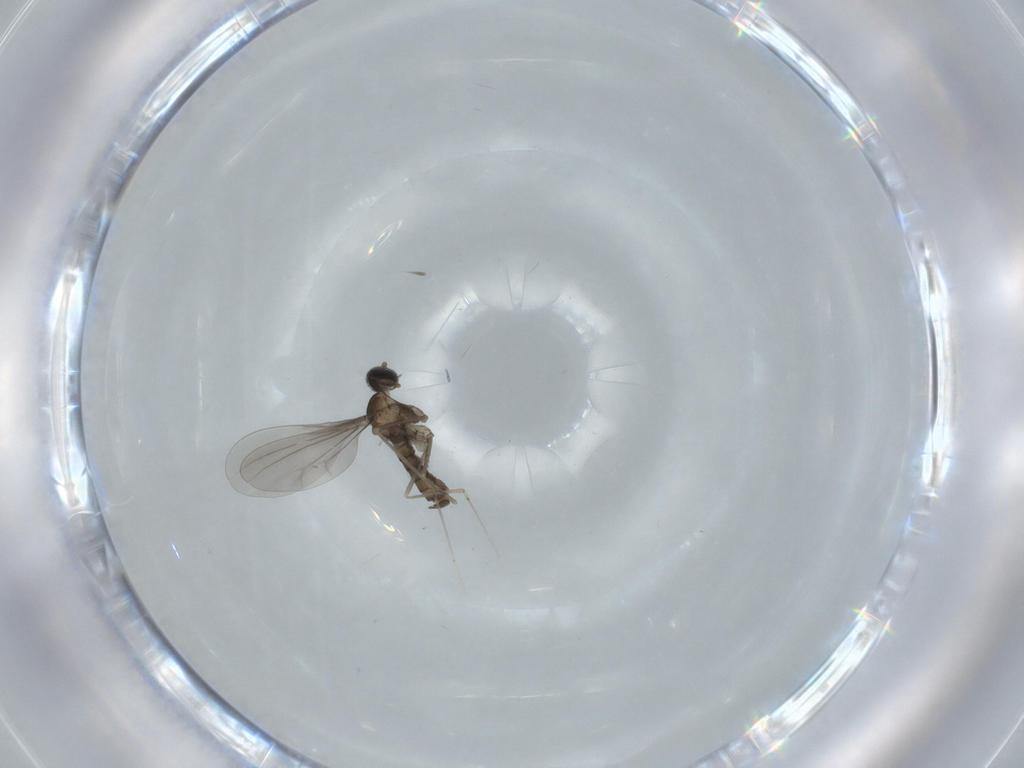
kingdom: Animalia
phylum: Arthropoda
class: Insecta
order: Diptera
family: Cecidomyiidae
